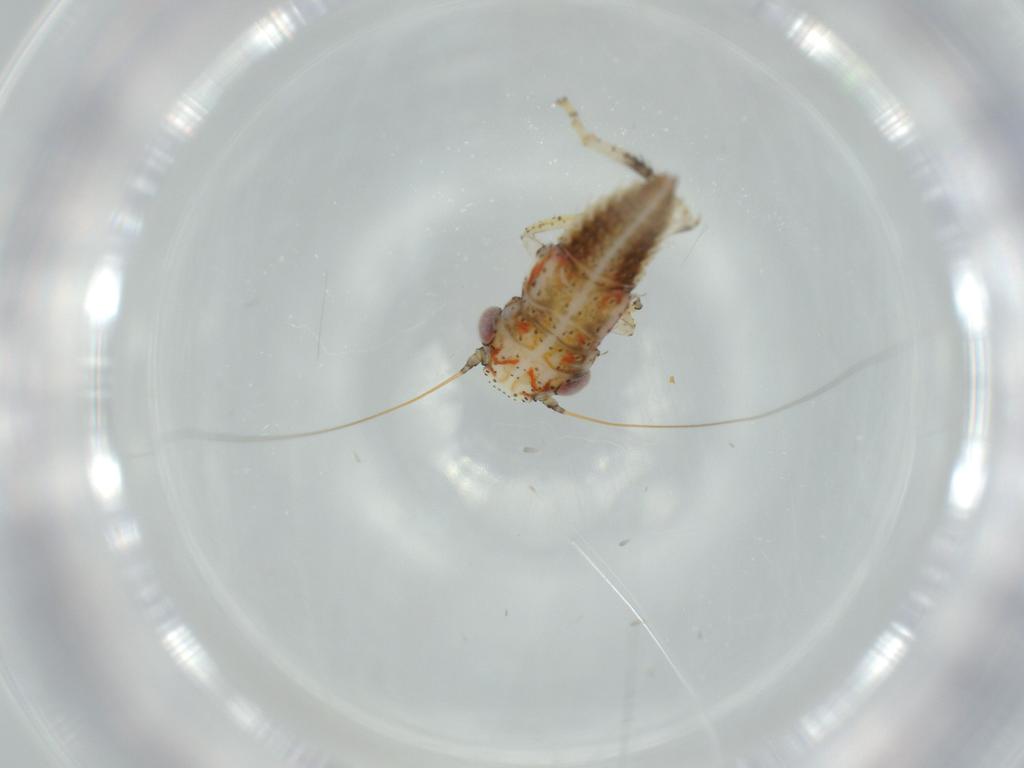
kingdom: Animalia
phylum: Arthropoda
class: Insecta
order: Hemiptera
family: Cicadellidae
